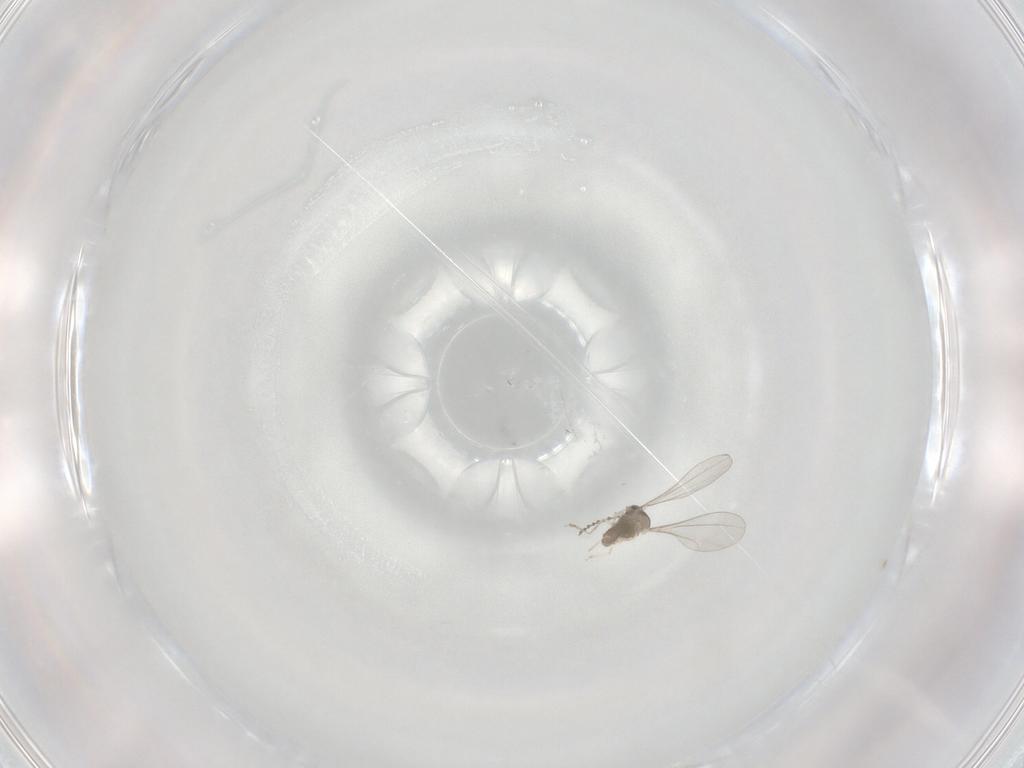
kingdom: Animalia
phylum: Arthropoda
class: Insecta
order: Diptera
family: Cecidomyiidae
